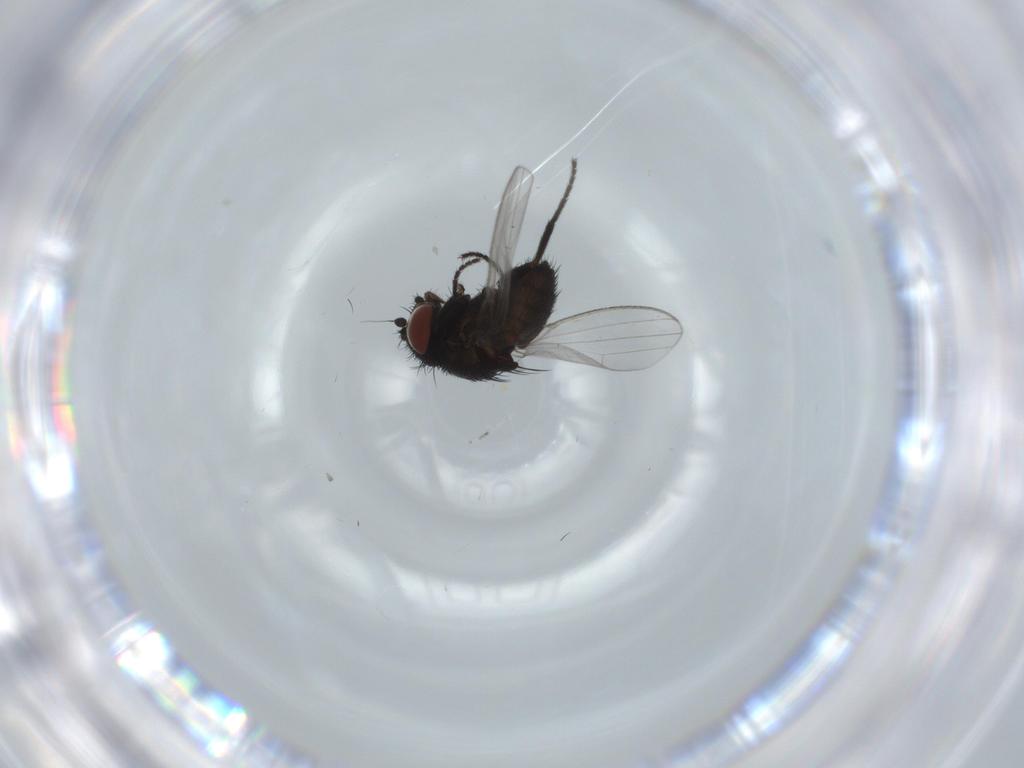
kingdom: Animalia
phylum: Arthropoda
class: Insecta
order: Diptera
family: Milichiidae
